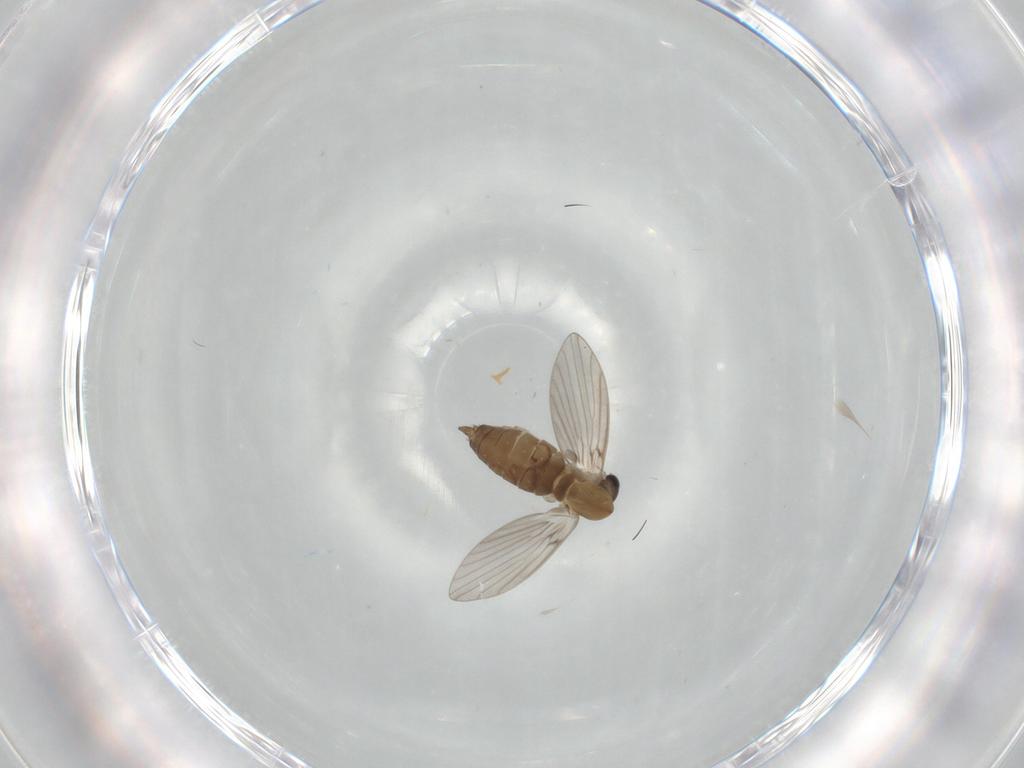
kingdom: Animalia
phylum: Arthropoda
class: Insecta
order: Diptera
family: Psychodidae
